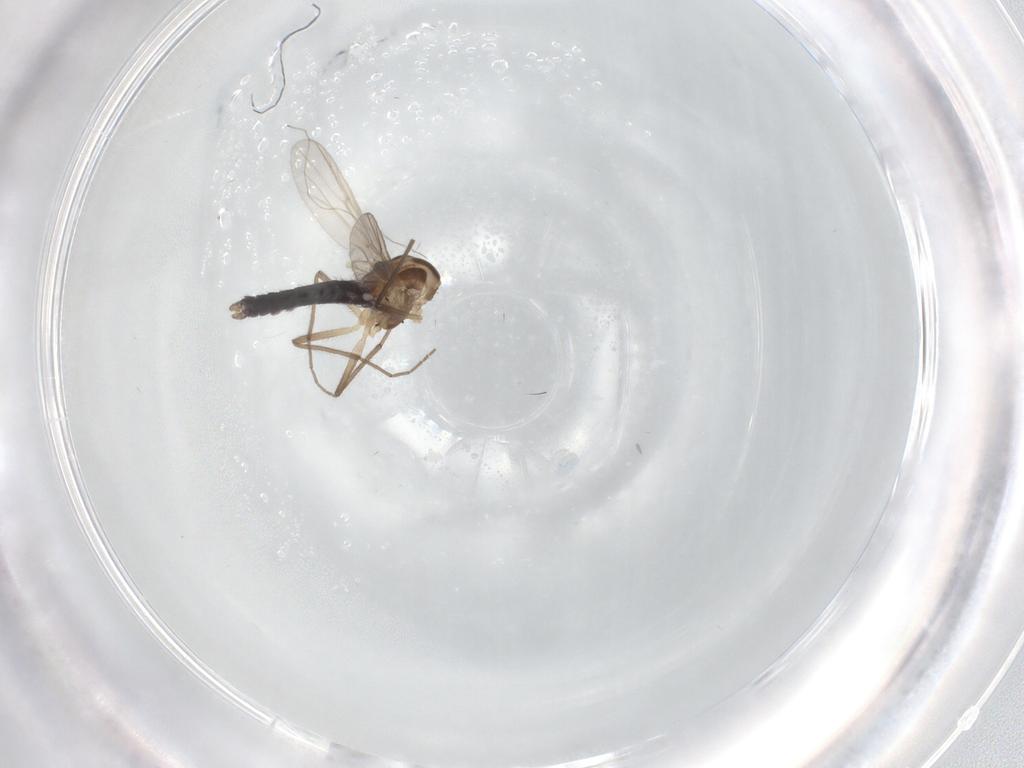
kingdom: Animalia
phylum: Arthropoda
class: Insecta
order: Diptera
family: Chironomidae
